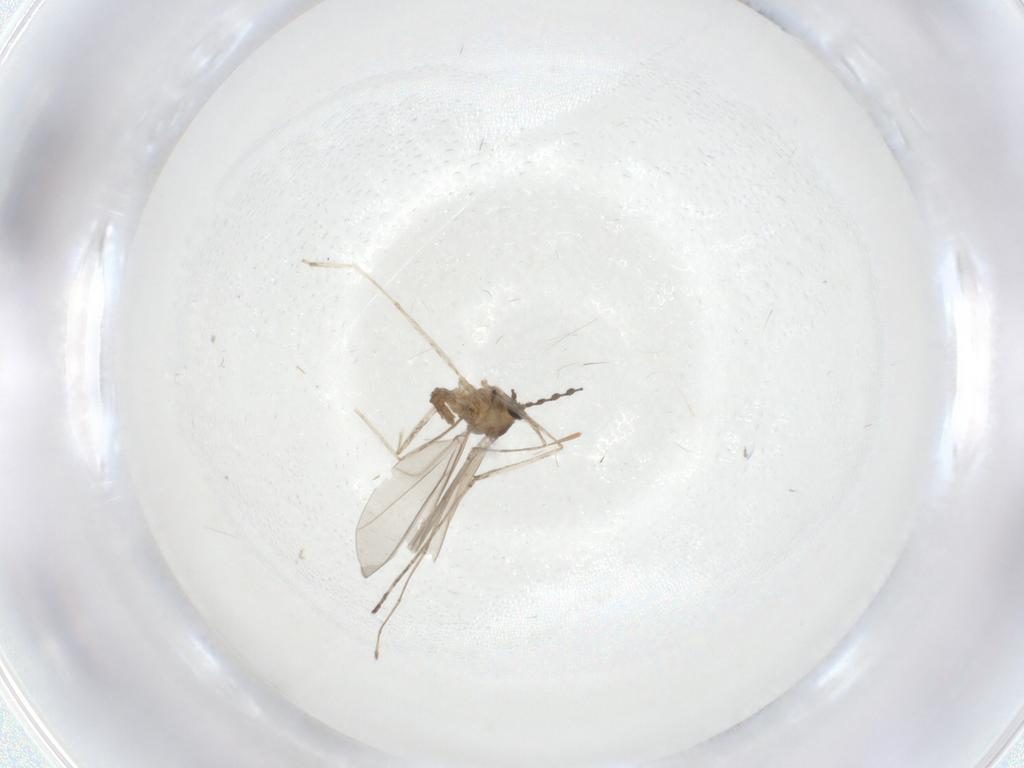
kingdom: Animalia
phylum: Arthropoda
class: Insecta
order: Diptera
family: Cecidomyiidae
